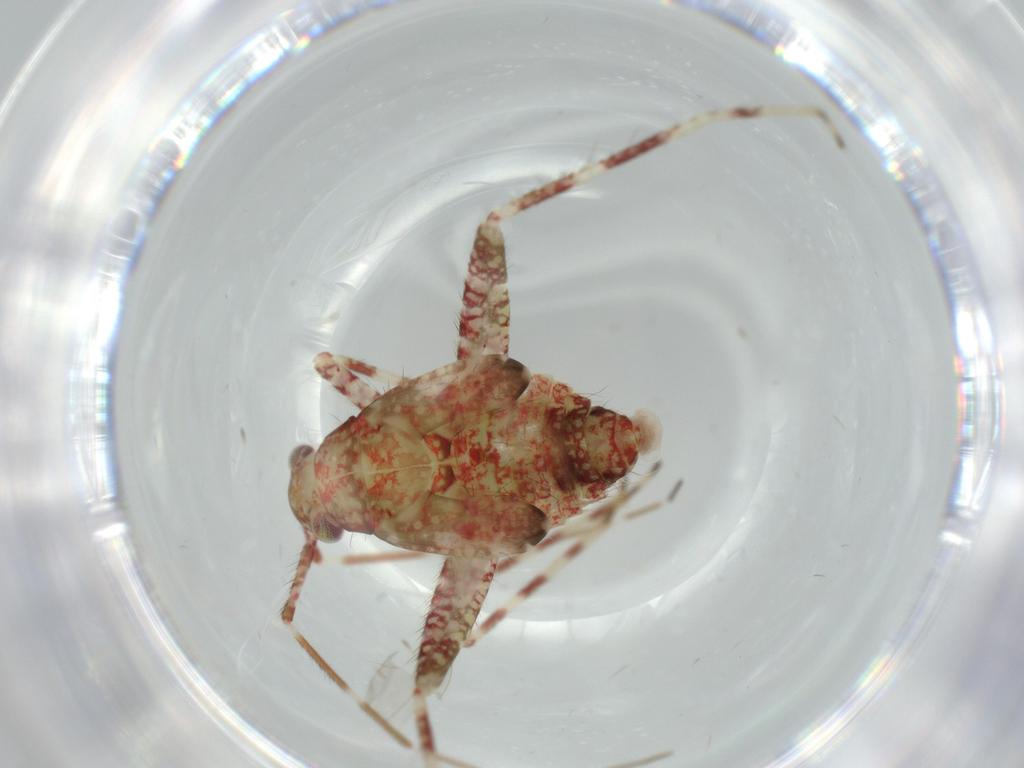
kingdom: Animalia
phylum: Arthropoda
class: Insecta
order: Hemiptera
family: Miridae
